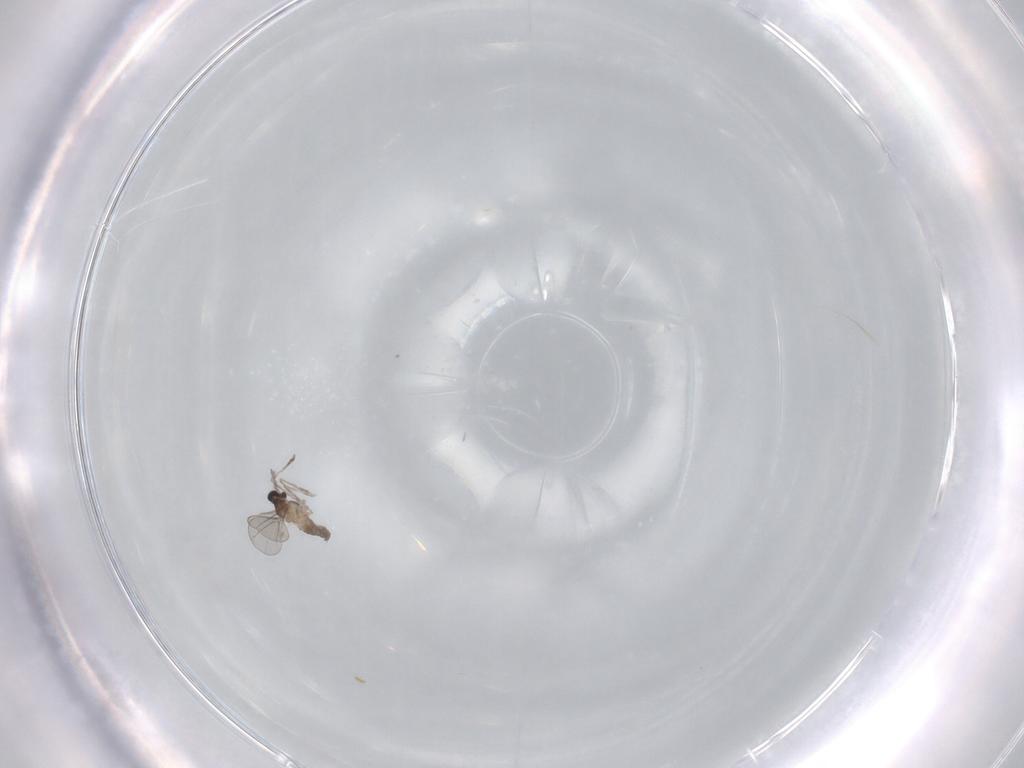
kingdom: Animalia
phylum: Arthropoda
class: Insecta
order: Diptera
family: Cecidomyiidae
